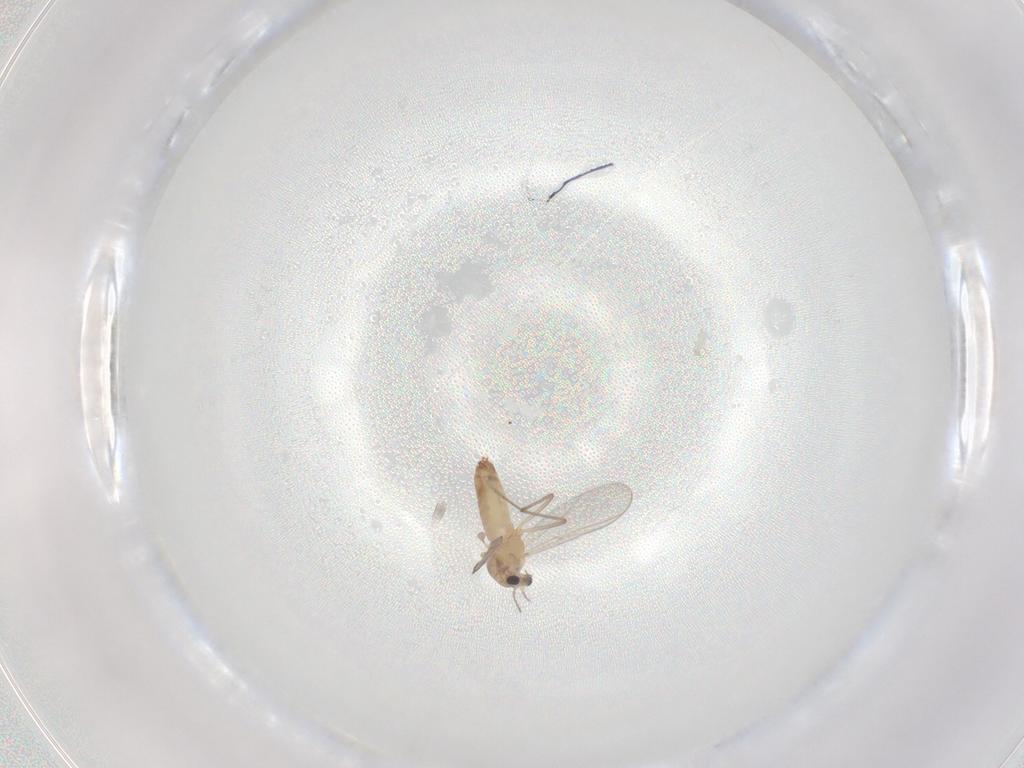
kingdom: Animalia
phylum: Arthropoda
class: Insecta
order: Diptera
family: Chironomidae
